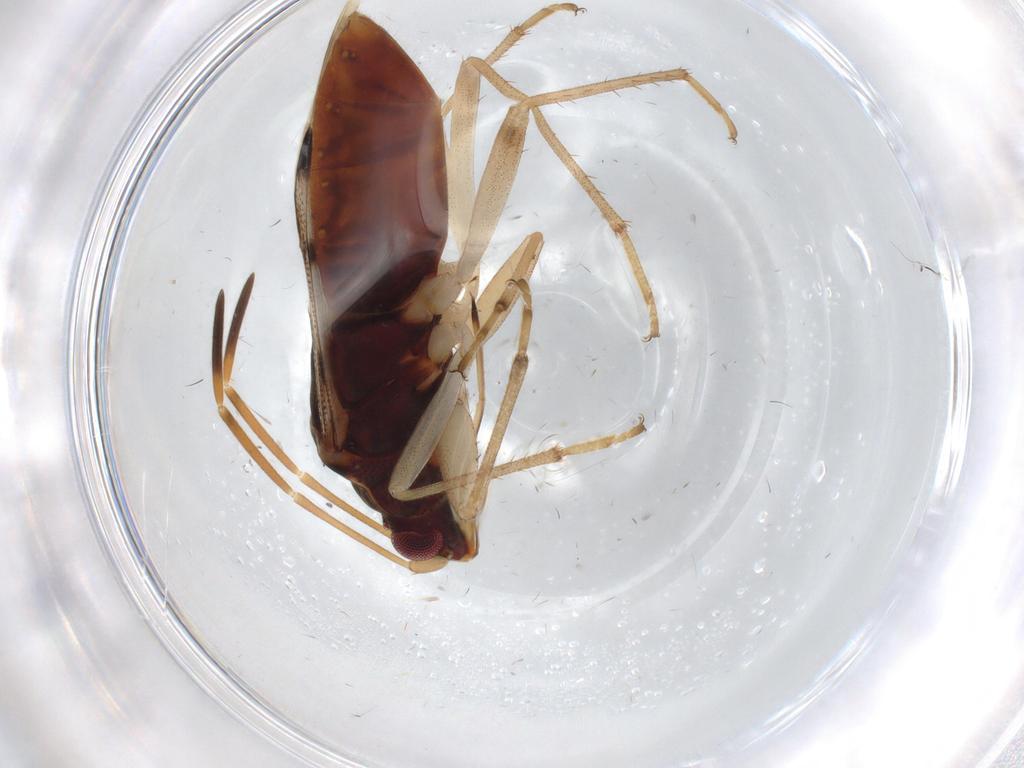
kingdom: Animalia
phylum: Arthropoda
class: Insecta
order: Hemiptera
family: Rhyparochromidae
